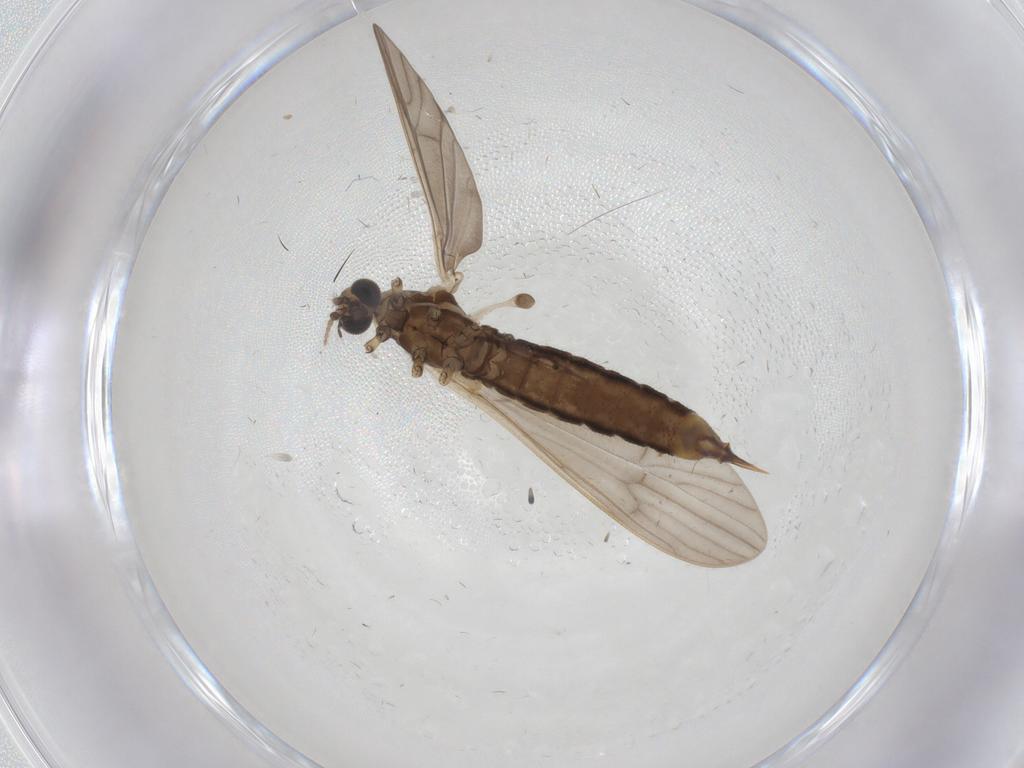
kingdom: Animalia
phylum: Arthropoda
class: Insecta
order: Diptera
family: Limoniidae
